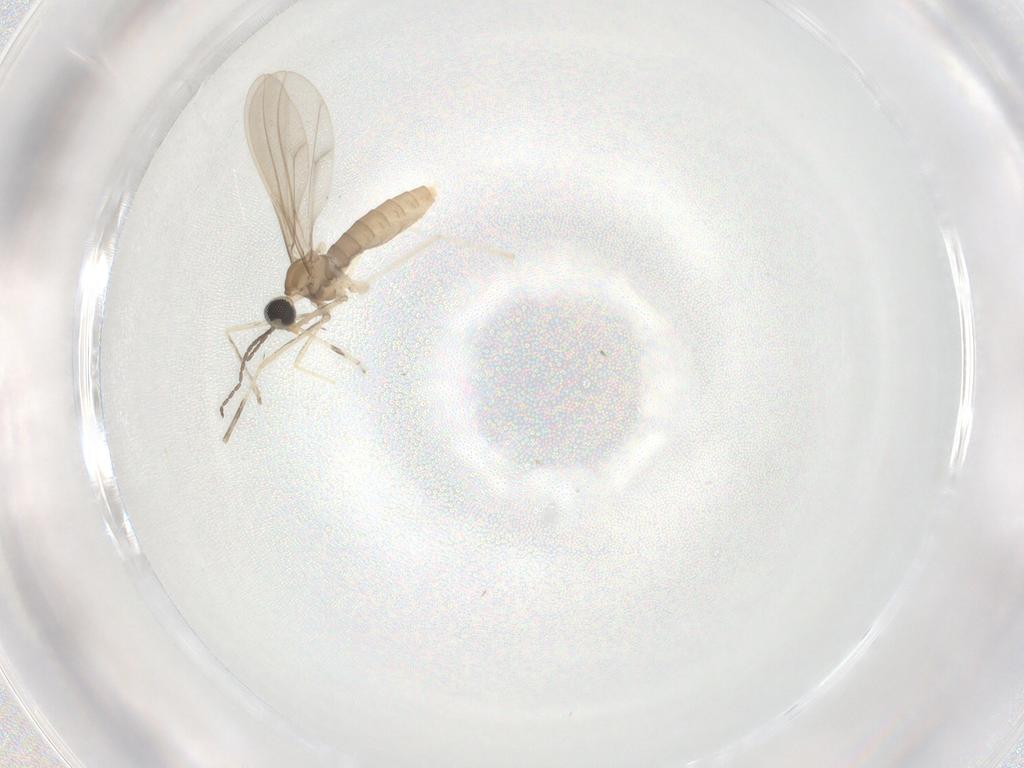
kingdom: Animalia
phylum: Arthropoda
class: Insecta
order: Diptera
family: Cecidomyiidae
